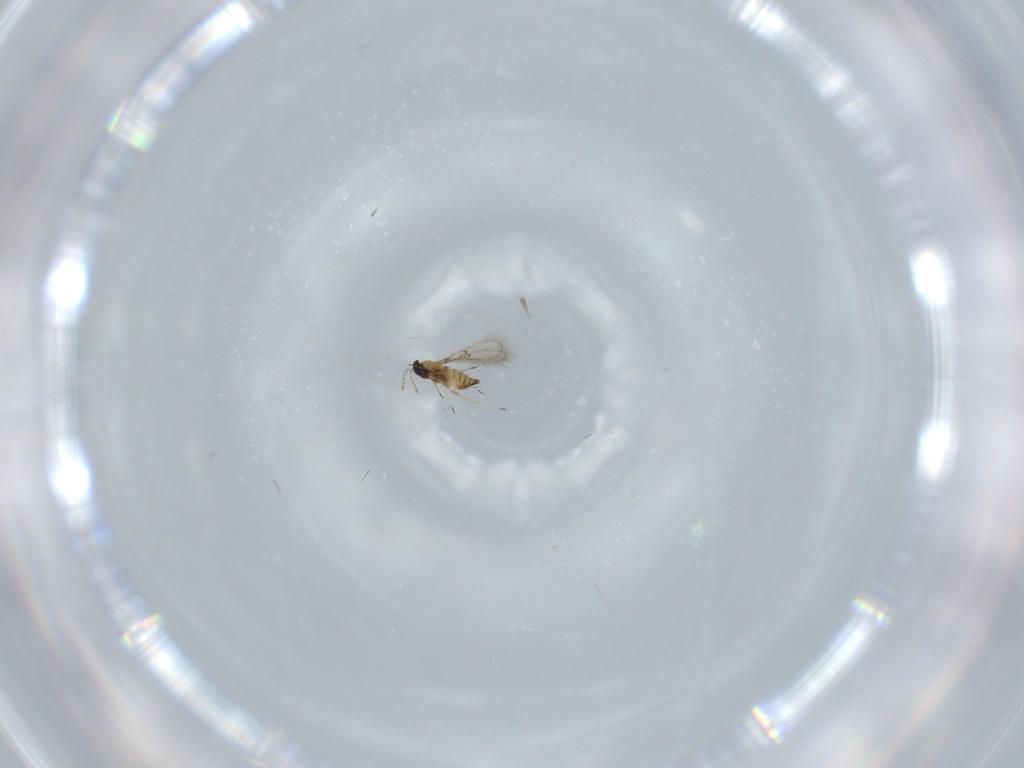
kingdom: Animalia
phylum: Arthropoda
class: Insecta
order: Hymenoptera
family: Trichogrammatidae
